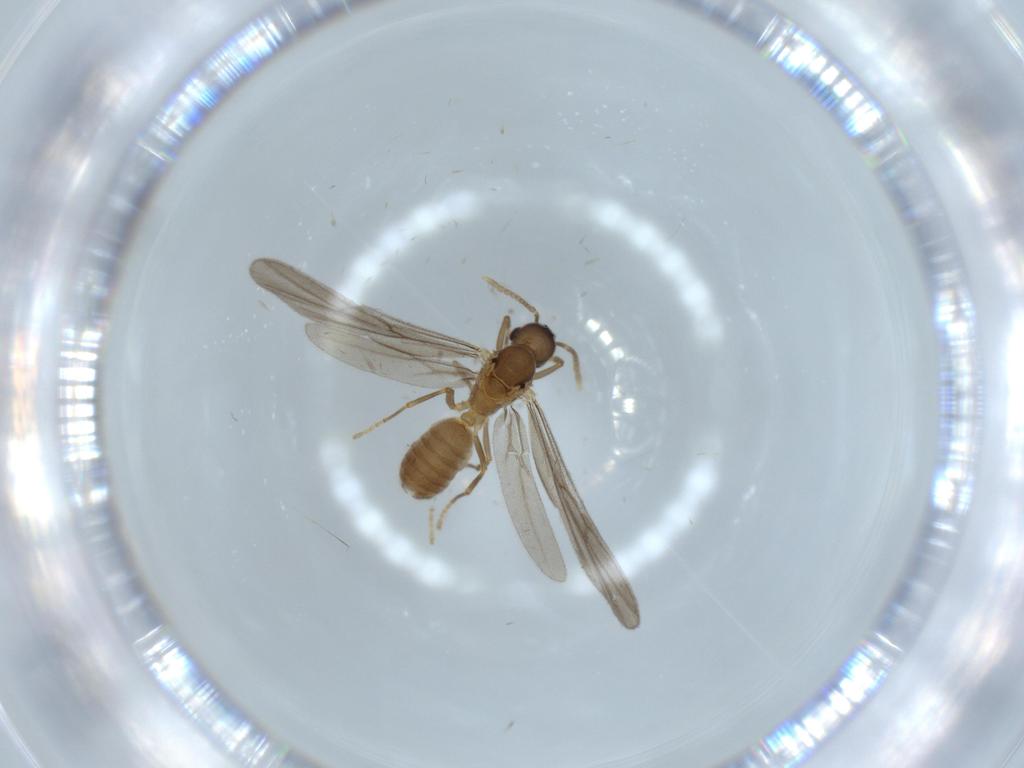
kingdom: Animalia
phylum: Arthropoda
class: Insecta
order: Hymenoptera
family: Formicidae
